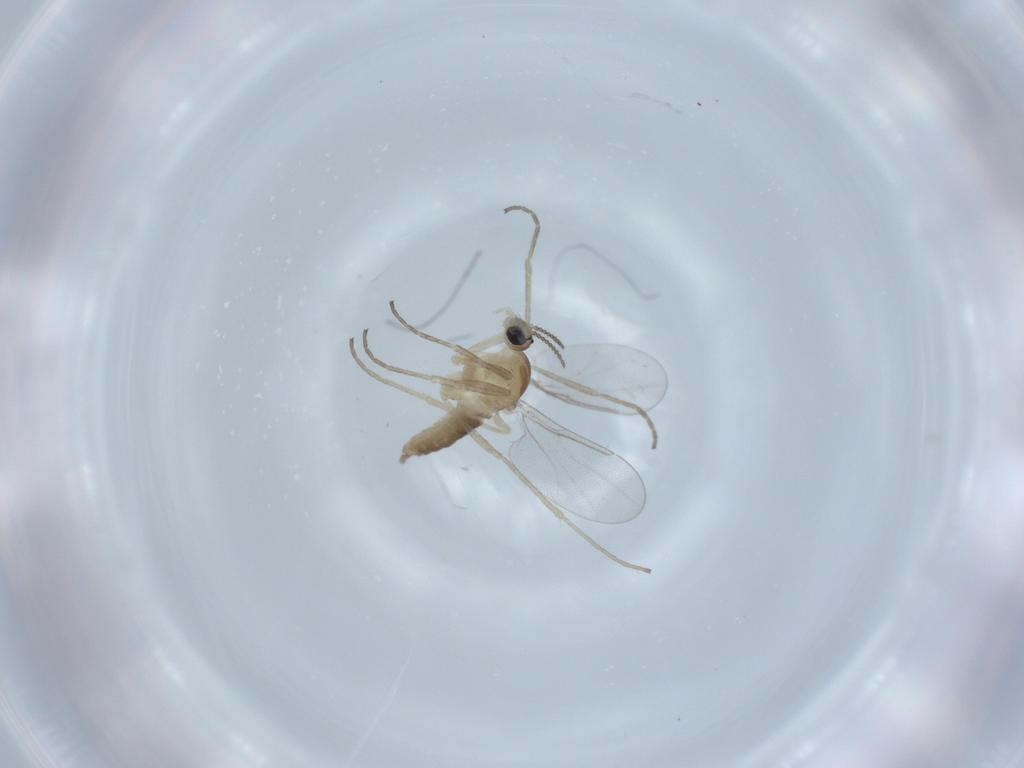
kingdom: Animalia
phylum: Arthropoda
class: Insecta
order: Diptera
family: Cecidomyiidae
